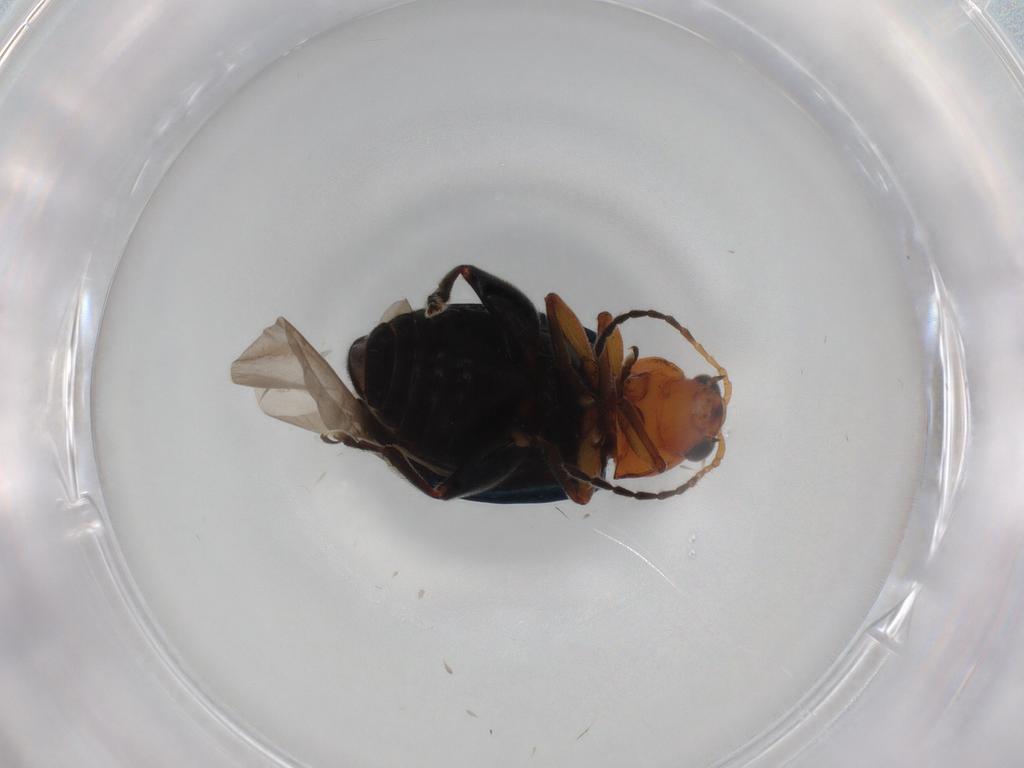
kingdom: Animalia
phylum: Arthropoda
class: Insecta
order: Coleoptera
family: Chrysomelidae
